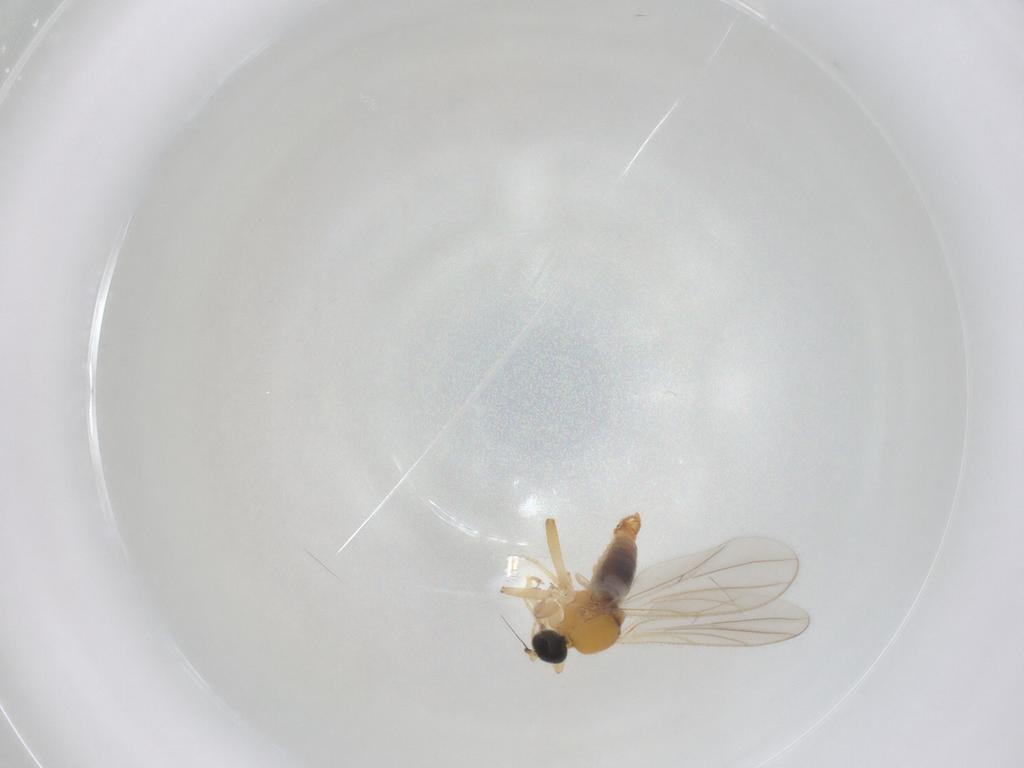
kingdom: Animalia
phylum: Arthropoda
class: Insecta
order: Diptera
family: Hybotidae
